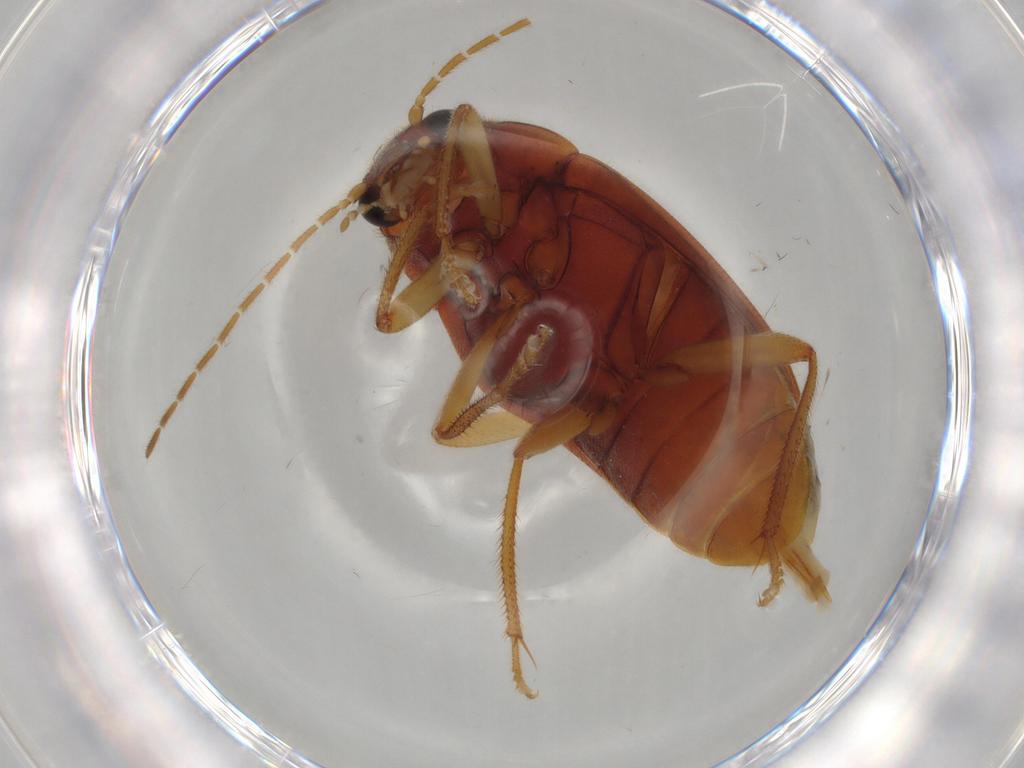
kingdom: Animalia
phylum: Arthropoda
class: Insecta
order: Coleoptera
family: Ptilodactylidae
